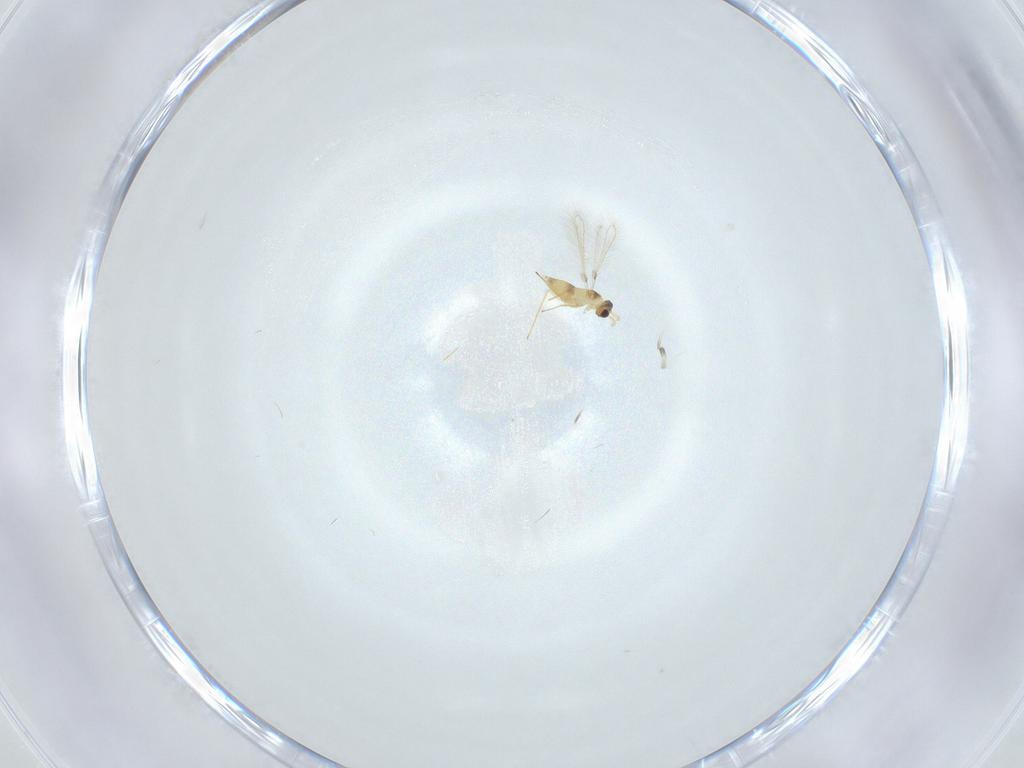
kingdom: Animalia
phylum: Arthropoda
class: Insecta
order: Hymenoptera
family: Mymaridae
